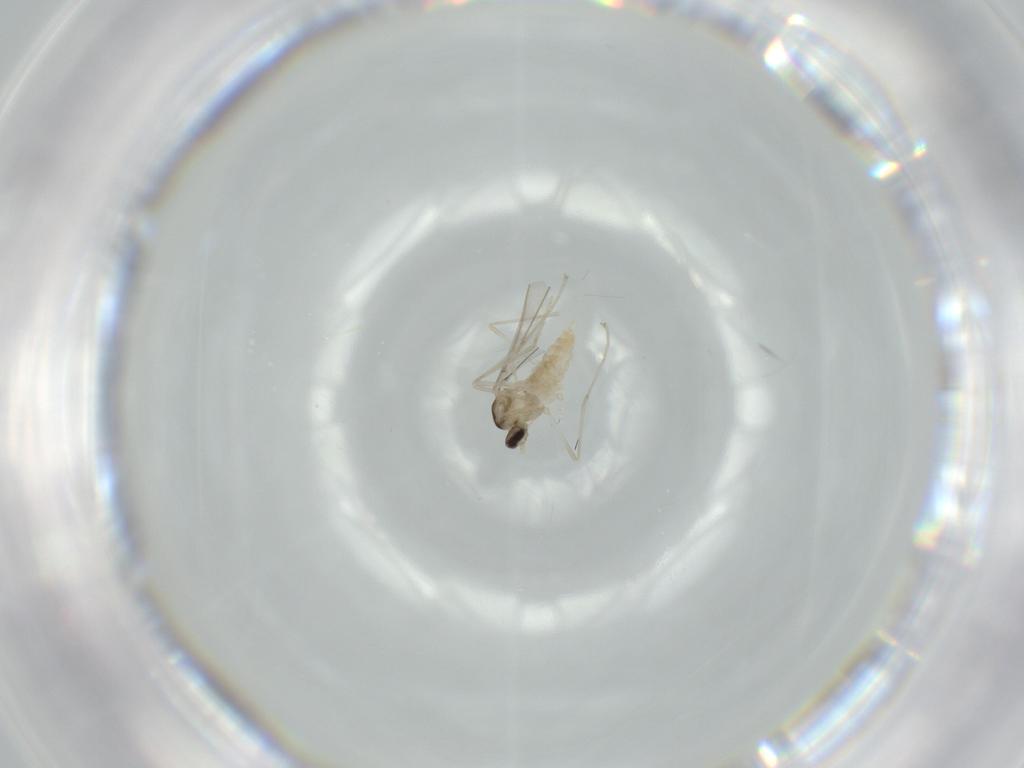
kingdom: Animalia
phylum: Arthropoda
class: Insecta
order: Diptera
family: Cecidomyiidae
